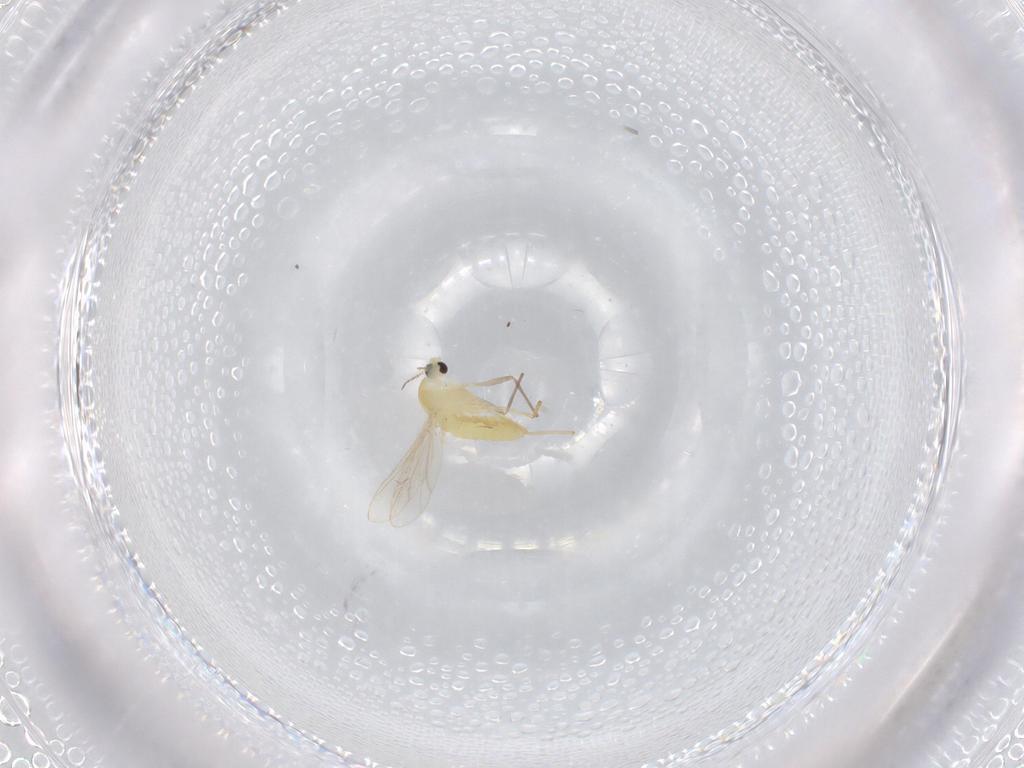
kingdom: Animalia
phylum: Arthropoda
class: Insecta
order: Diptera
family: Chironomidae
